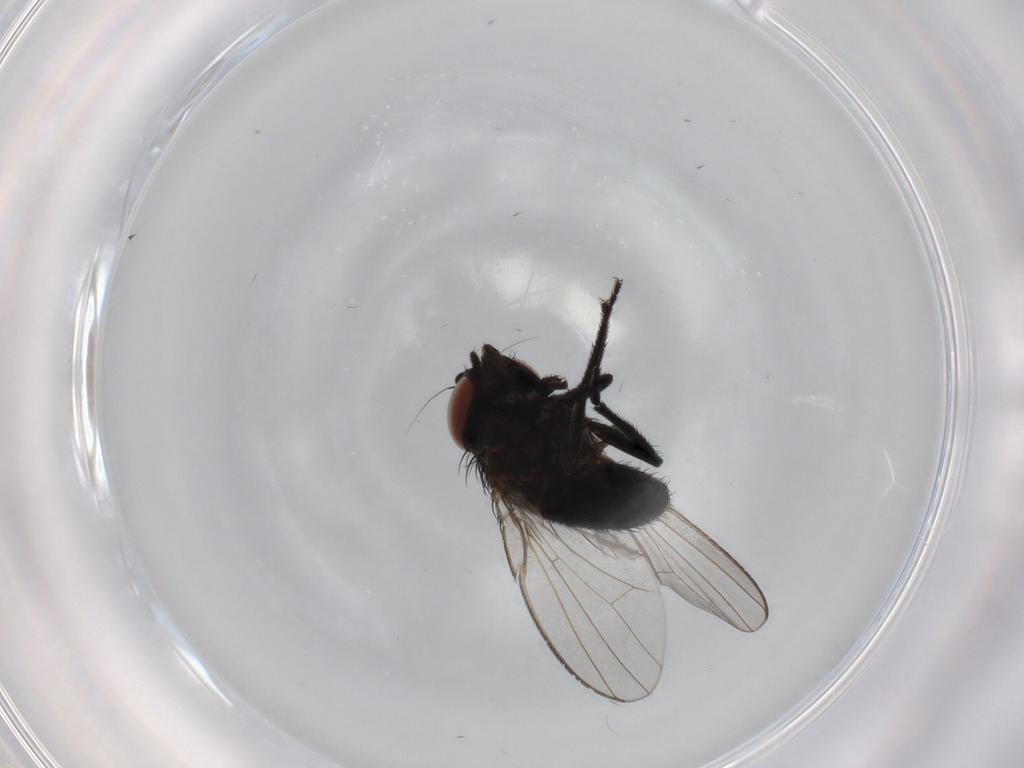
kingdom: Animalia
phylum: Arthropoda
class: Insecta
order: Diptera
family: Milichiidae
